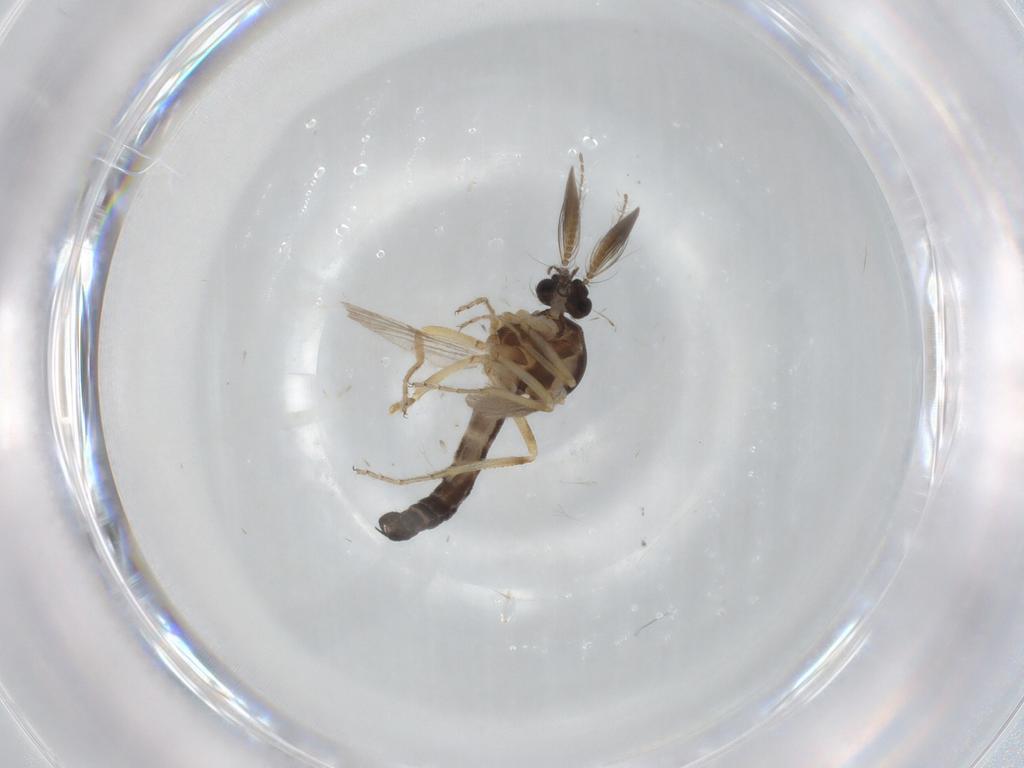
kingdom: Animalia
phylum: Arthropoda
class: Insecta
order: Diptera
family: Ceratopogonidae
